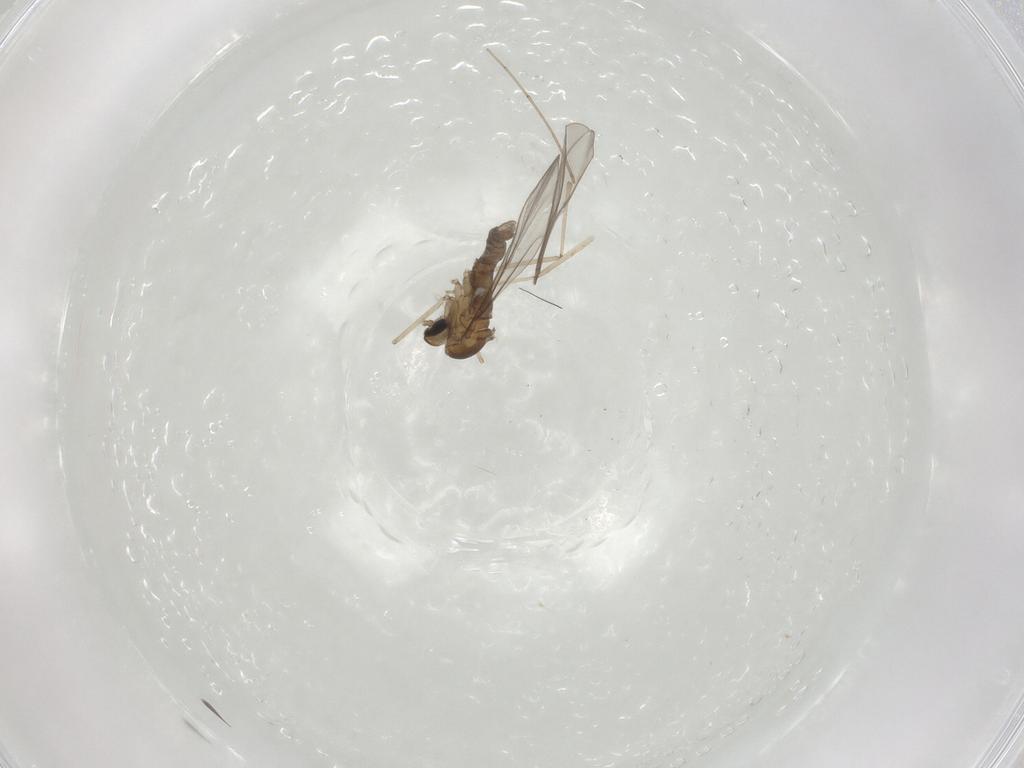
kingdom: Animalia
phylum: Arthropoda
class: Insecta
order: Diptera
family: Cecidomyiidae
